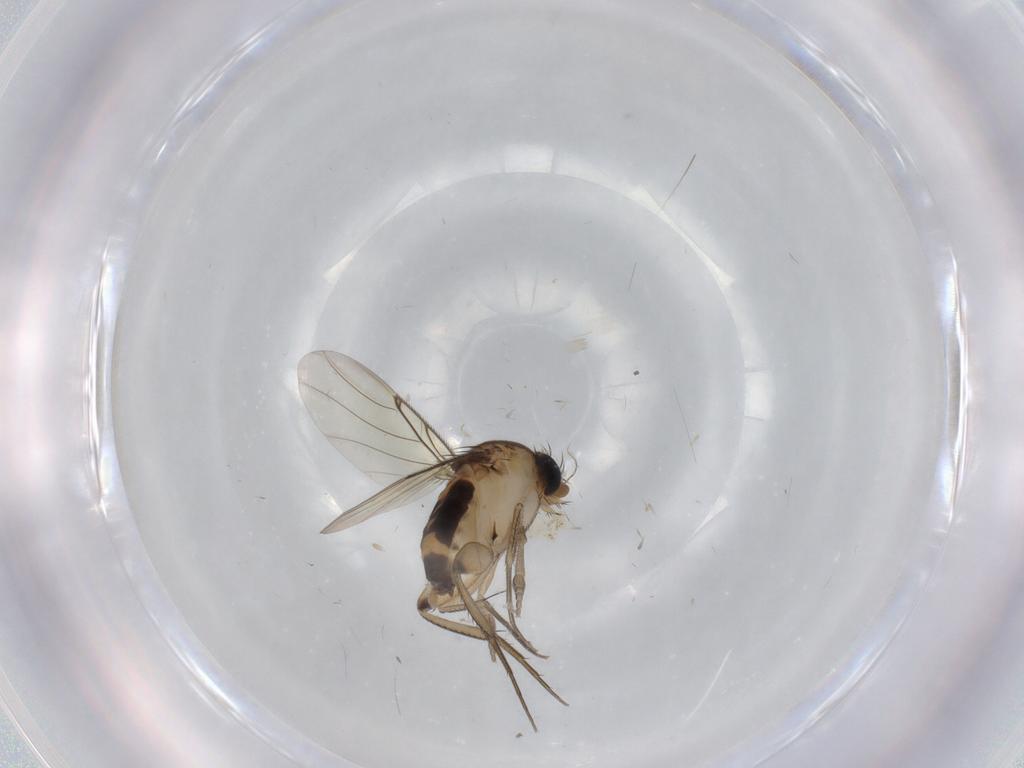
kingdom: Animalia
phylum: Arthropoda
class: Insecta
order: Diptera
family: Phoridae
